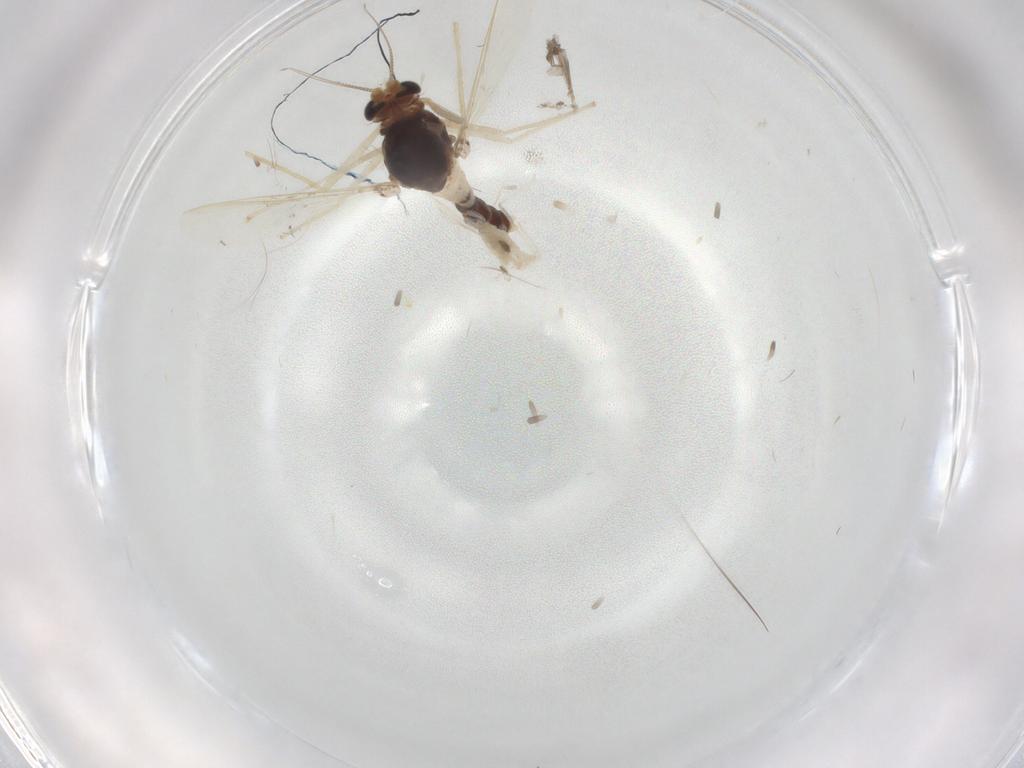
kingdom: Animalia
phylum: Arthropoda
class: Insecta
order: Diptera
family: Chironomidae
